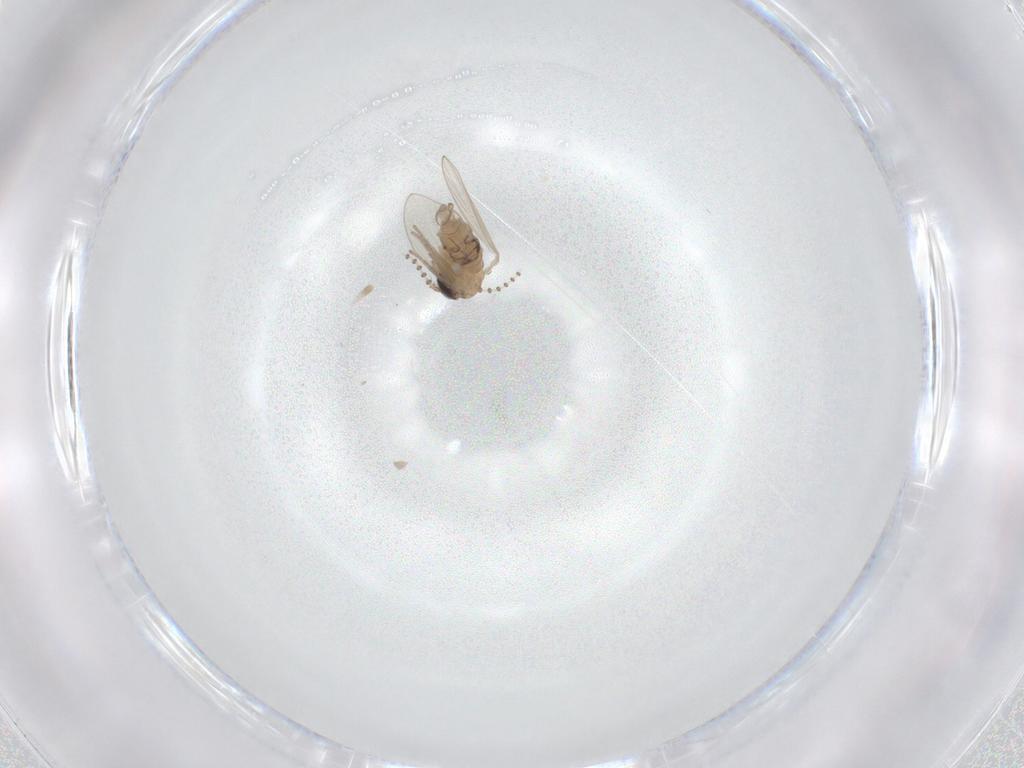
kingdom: Animalia
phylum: Arthropoda
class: Insecta
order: Diptera
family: Psychodidae
